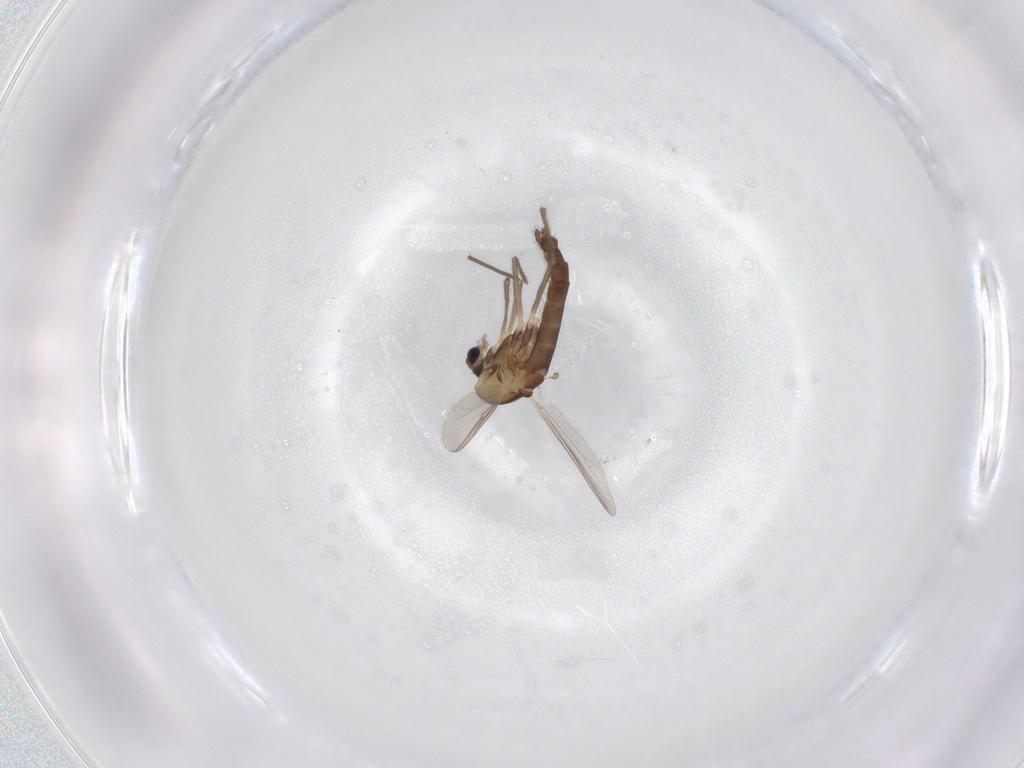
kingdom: Animalia
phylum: Arthropoda
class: Insecta
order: Diptera
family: Chironomidae
